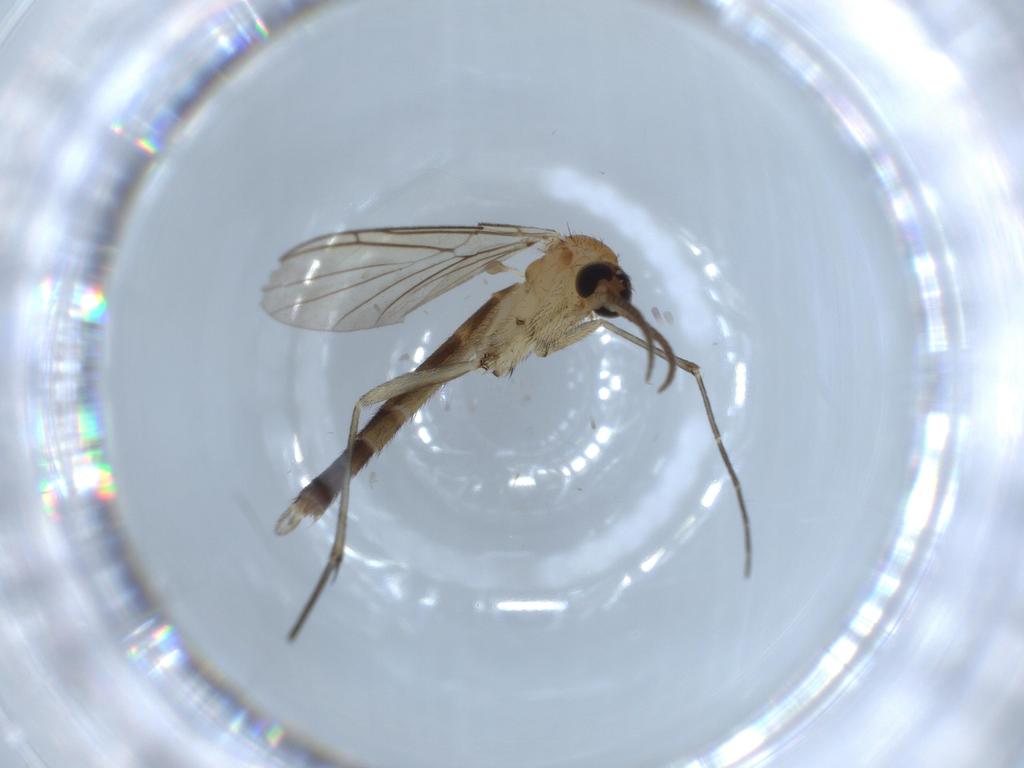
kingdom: Animalia
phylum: Arthropoda
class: Insecta
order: Diptera
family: Keroplatidae
